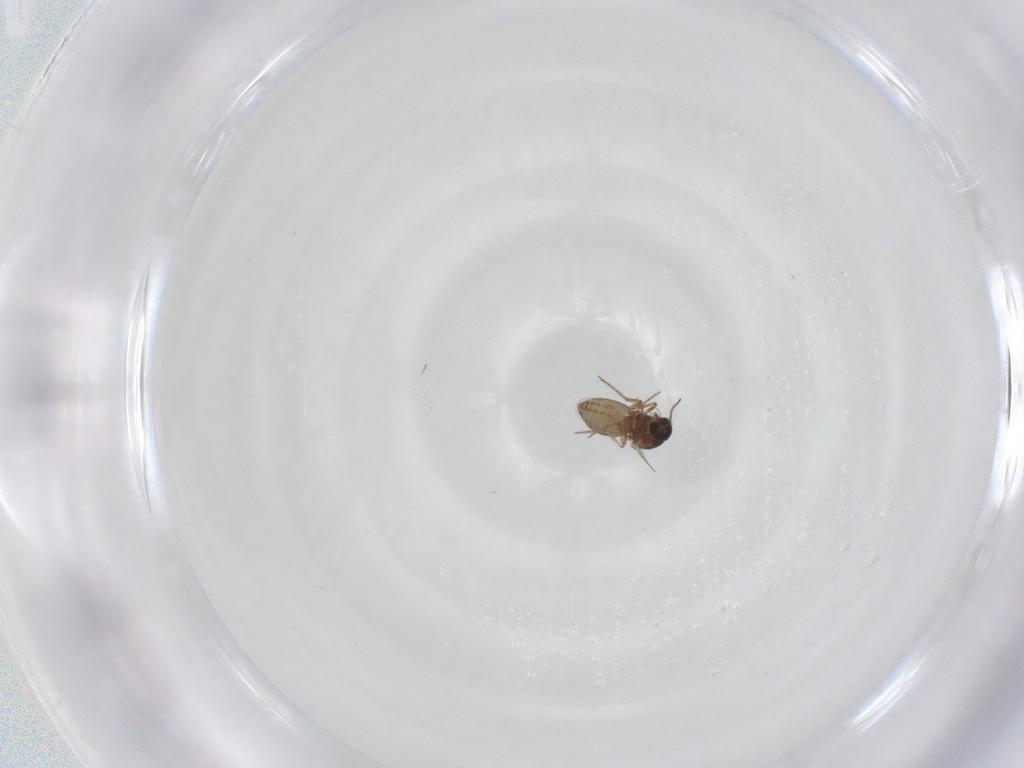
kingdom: Animalia
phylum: Arthropoda
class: Insecta
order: Diptera
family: Ceratopogonidae
